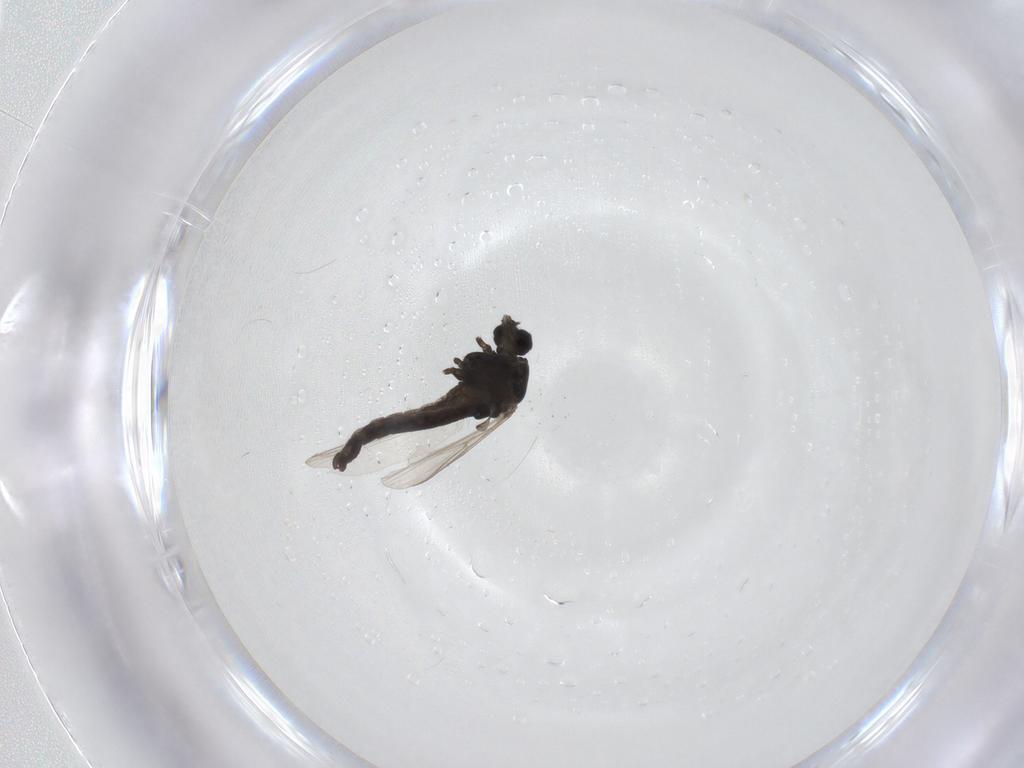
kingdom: Animalia
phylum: Arthropoda
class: Insecta
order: Diptera
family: Chironomidae
